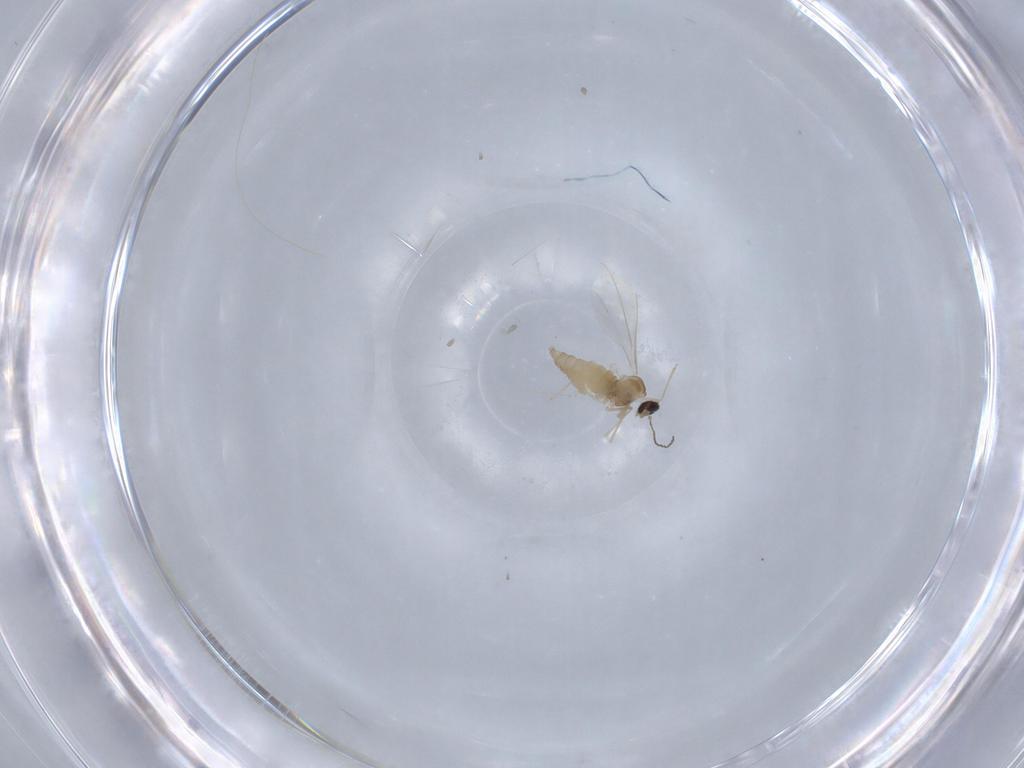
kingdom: Animalia
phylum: Arthropoda
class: Insecta
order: Diptera
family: Cecidomyiidae
